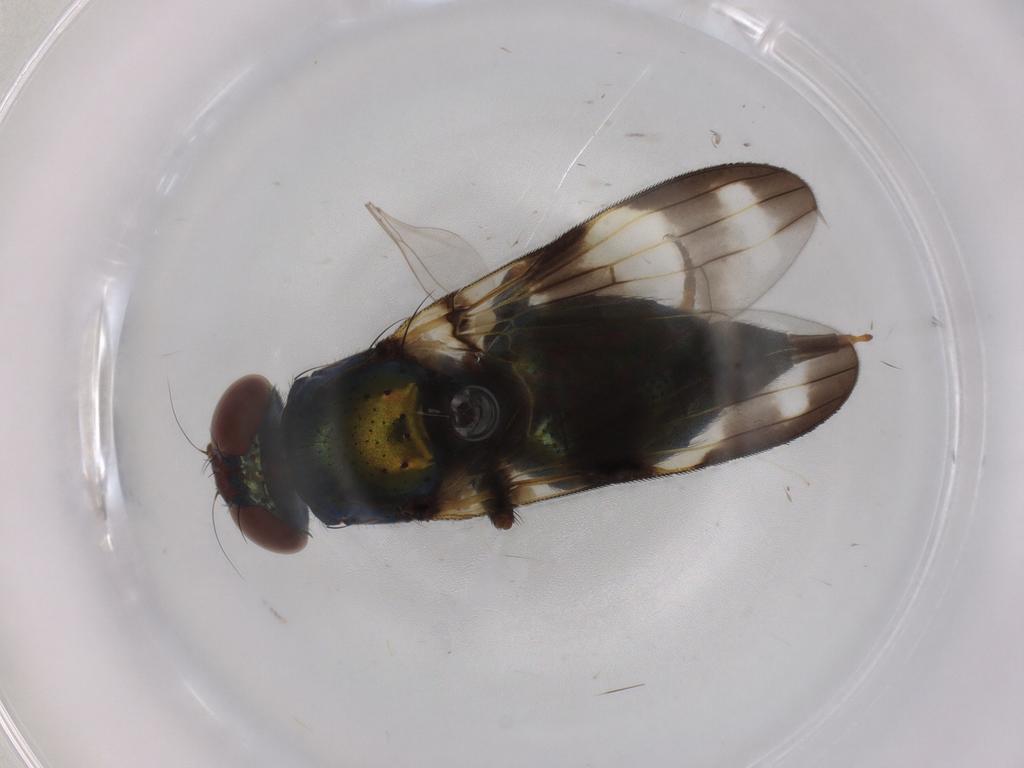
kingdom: Animalia
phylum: Arthropoda
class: Insecta
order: Diptera
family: Ulidiidae
